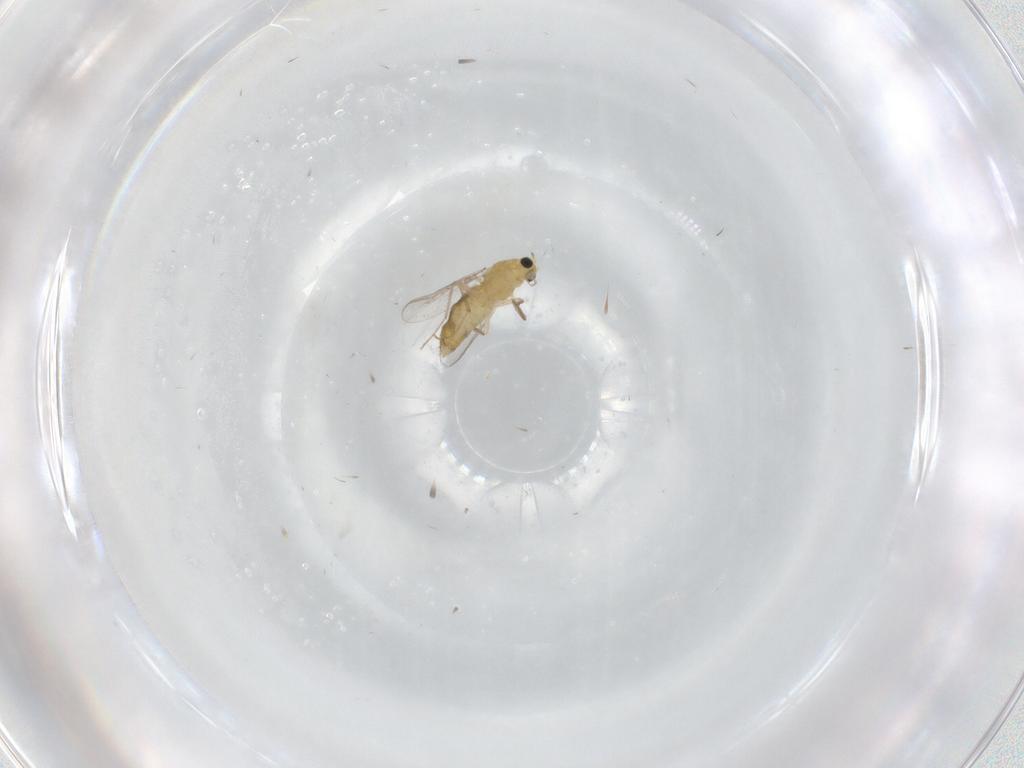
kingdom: Animalia
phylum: Arthropoda
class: Insecta
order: Diptera
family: Chironomidae
